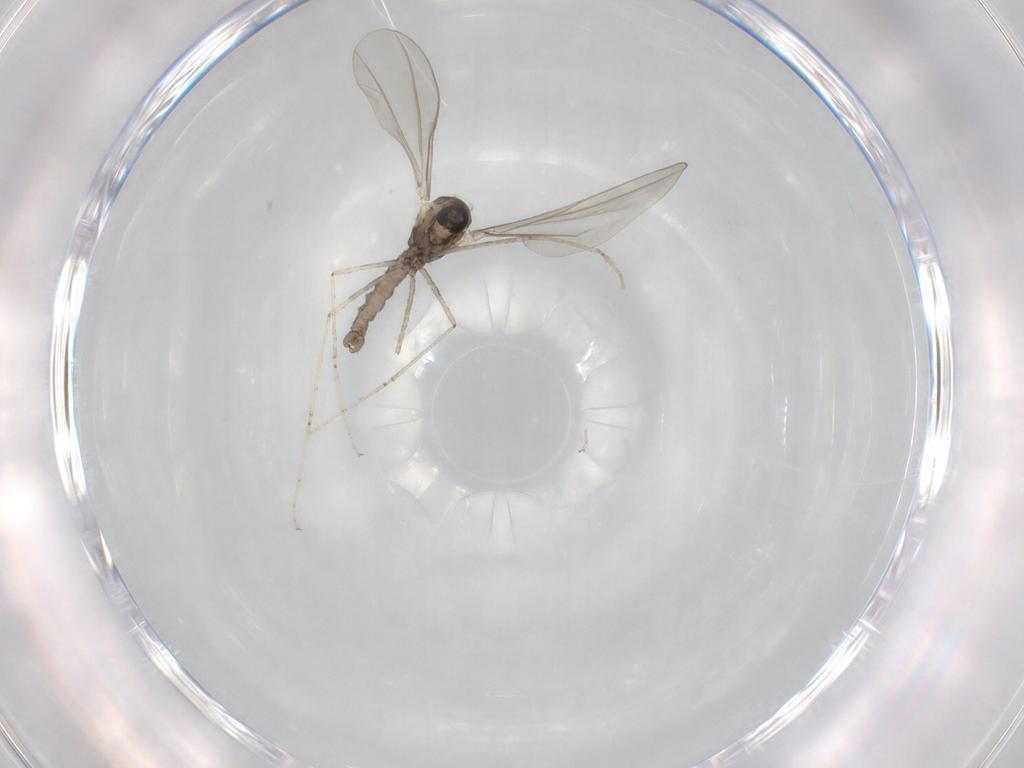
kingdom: Animalia
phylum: Arthropoda
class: Insecta
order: Diptera
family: Cecidomyiidae
